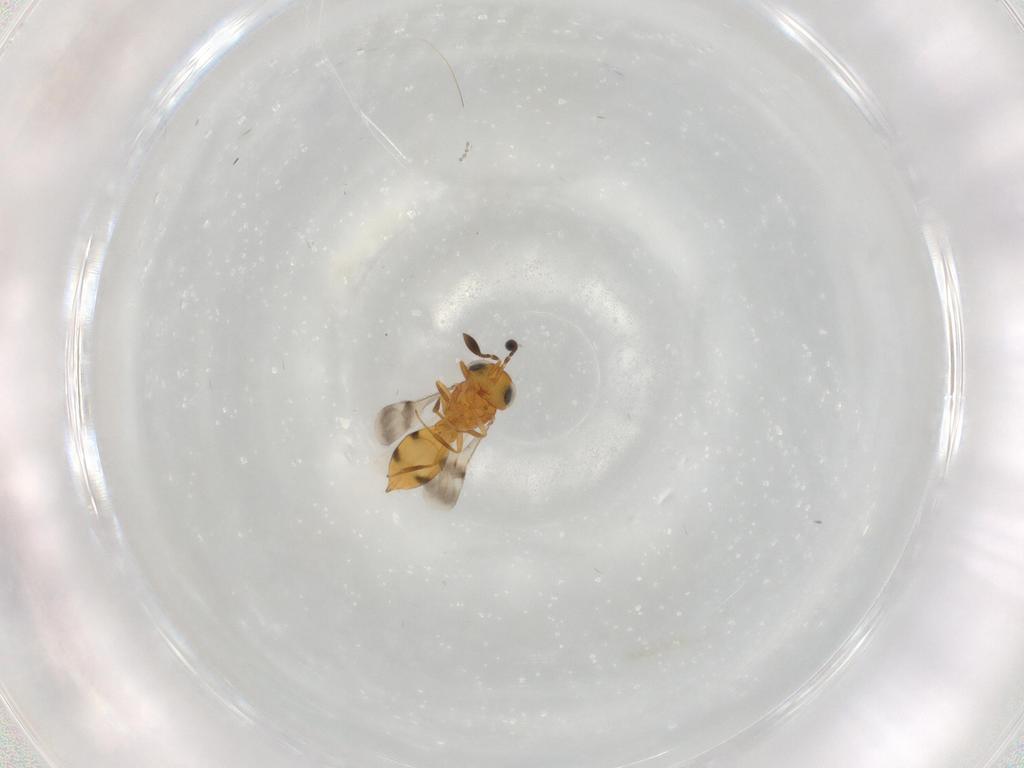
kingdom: Animalia
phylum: Arthropoda
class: Insecta
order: Hymenoptera
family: Scelionidae
